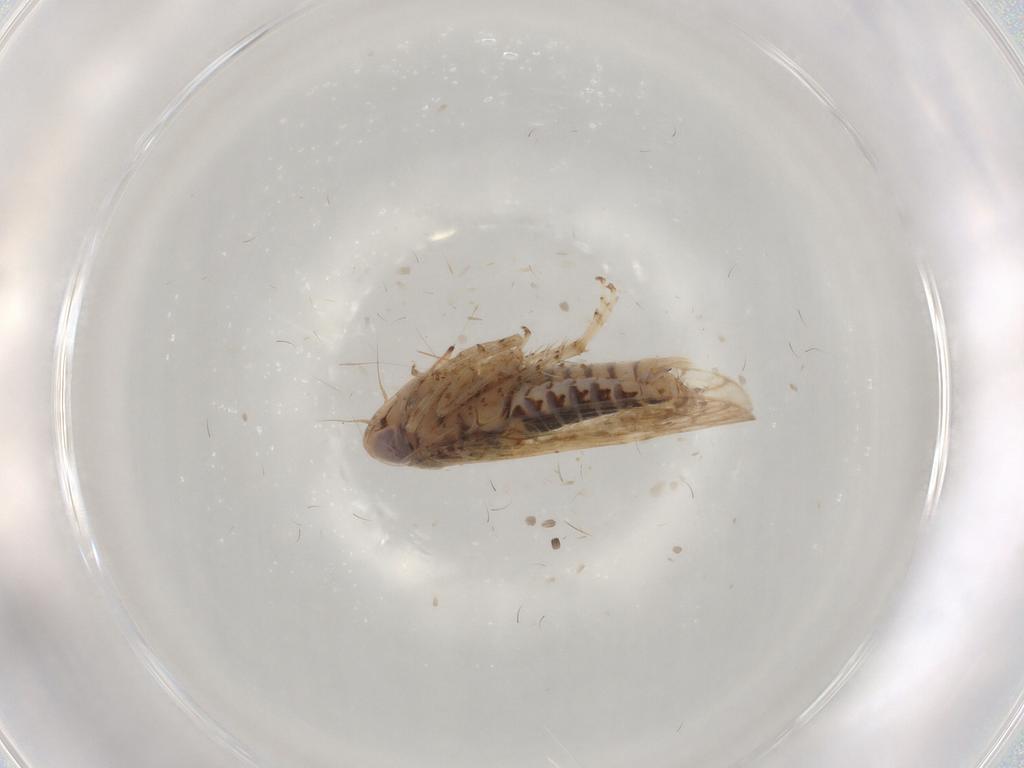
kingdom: Animalia
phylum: Arthropoda
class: Insecta
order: Hemiptera
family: Cicadellidae
